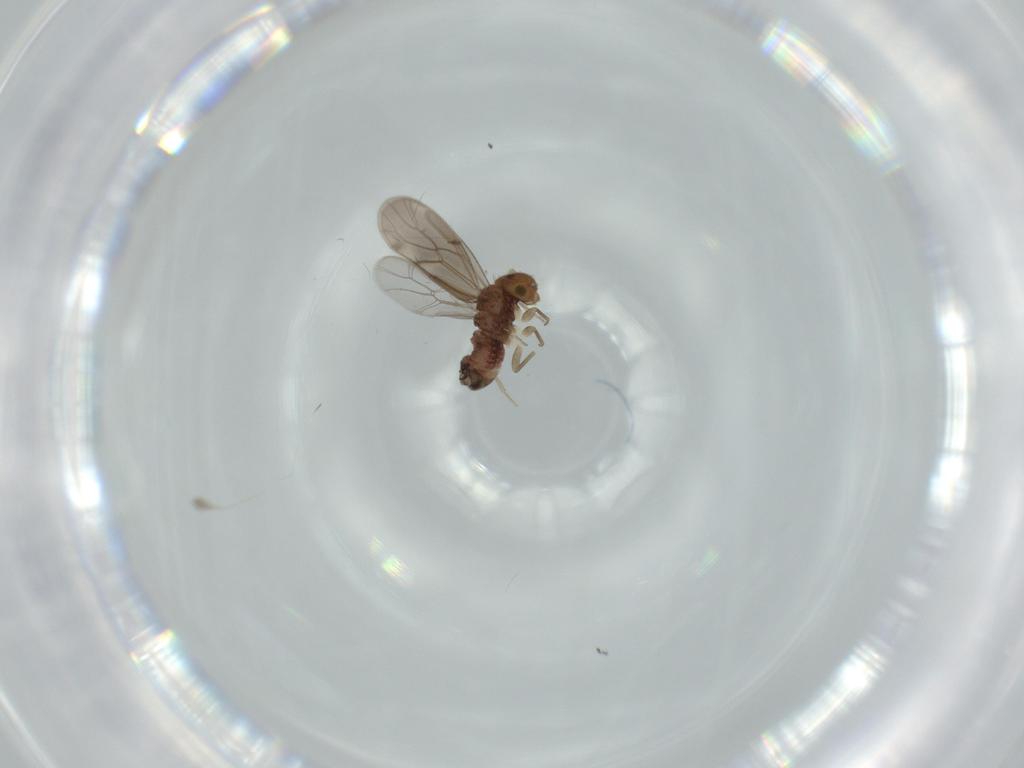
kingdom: Animalia
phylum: Arthropoda
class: Insecta
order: Psocodea
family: Ectopsocidae
